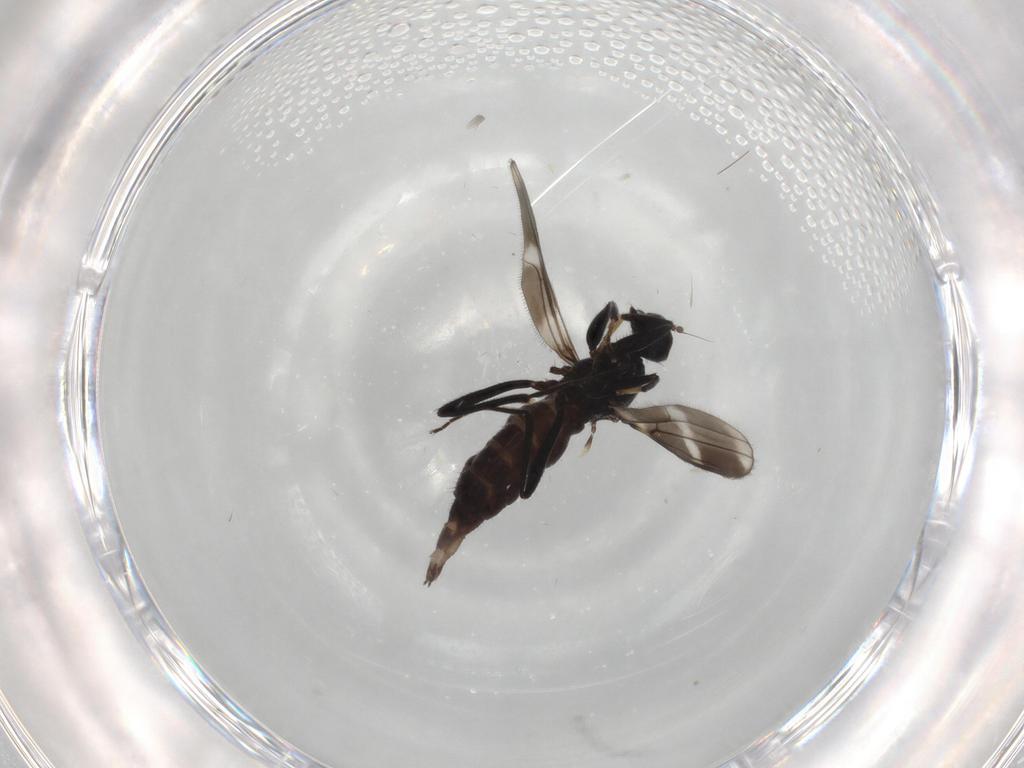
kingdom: Animalia
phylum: Arthropoda
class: Insecta
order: Diptera
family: Hybotidae
